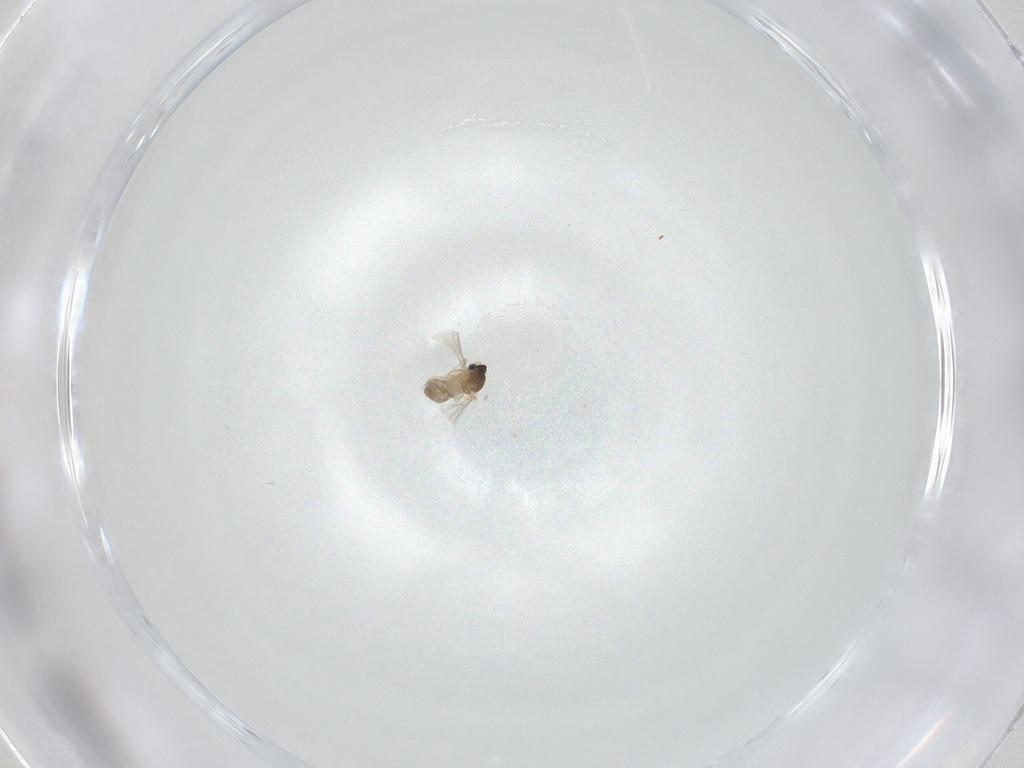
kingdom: Animalia
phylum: Arthropoda
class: Insecta
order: Diptera
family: Cecidomyiidae
